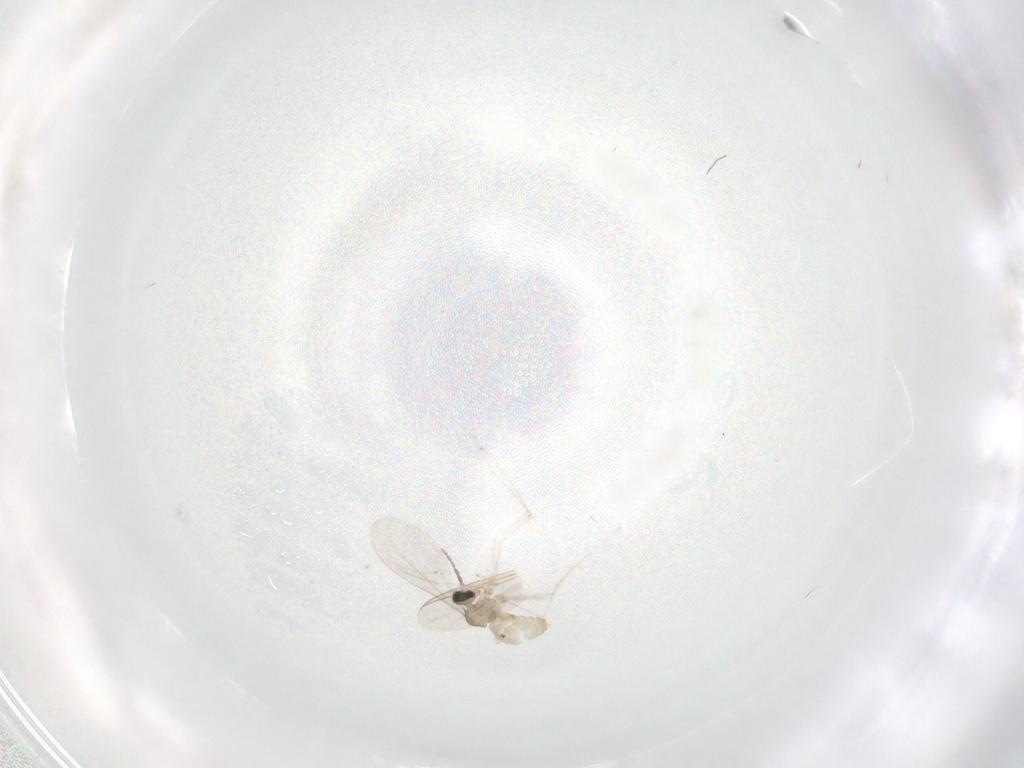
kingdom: Animalia
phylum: Arthropoda
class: Insecta
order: Diptera
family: Cecidomyiidae
